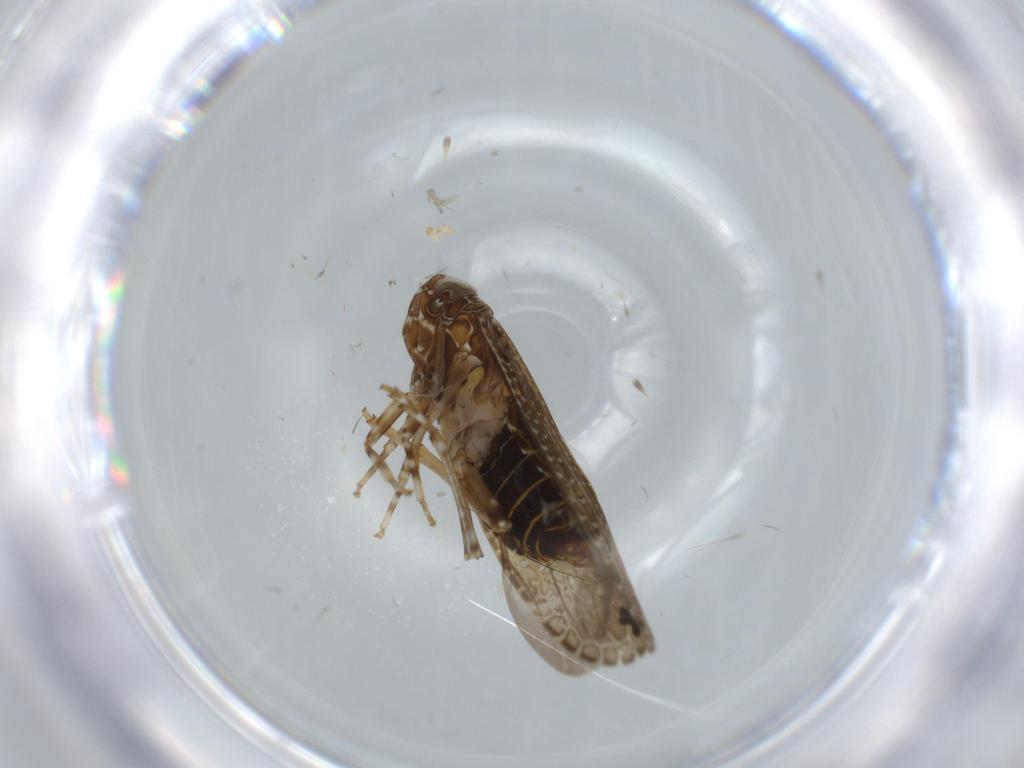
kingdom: Animalia
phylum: Arthropoda
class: Insecta
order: Hemiptera
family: Achilidae
